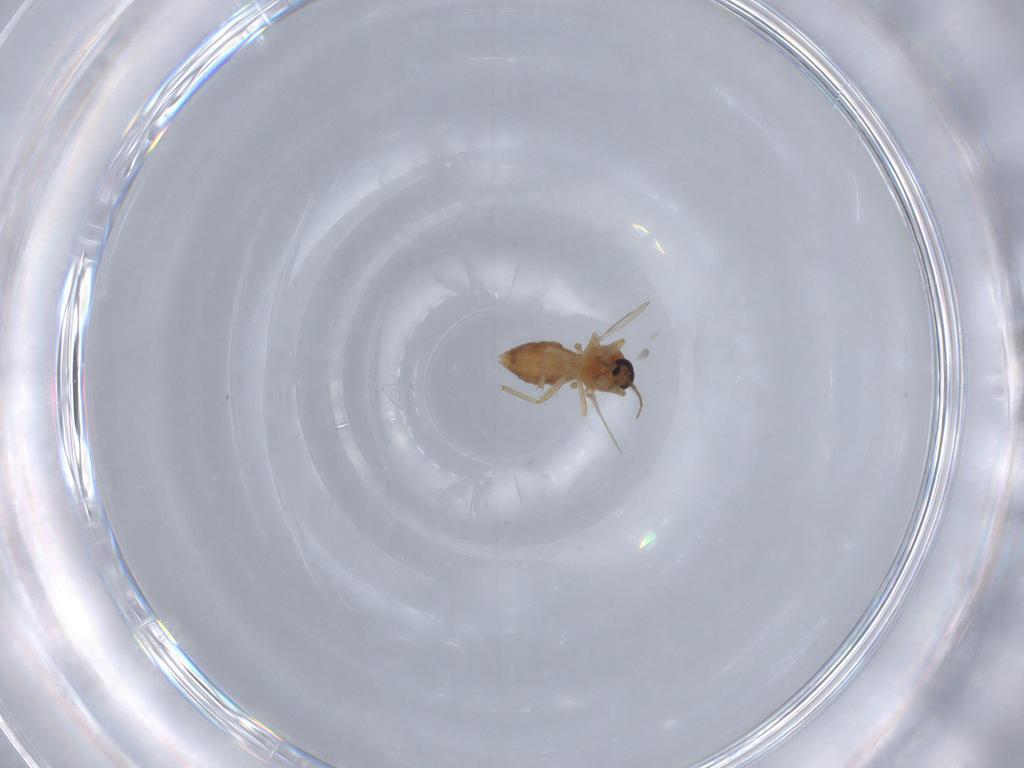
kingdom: Animalia
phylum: Arthropoda
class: Insecta
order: Diptera
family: Ceratopogonidae
